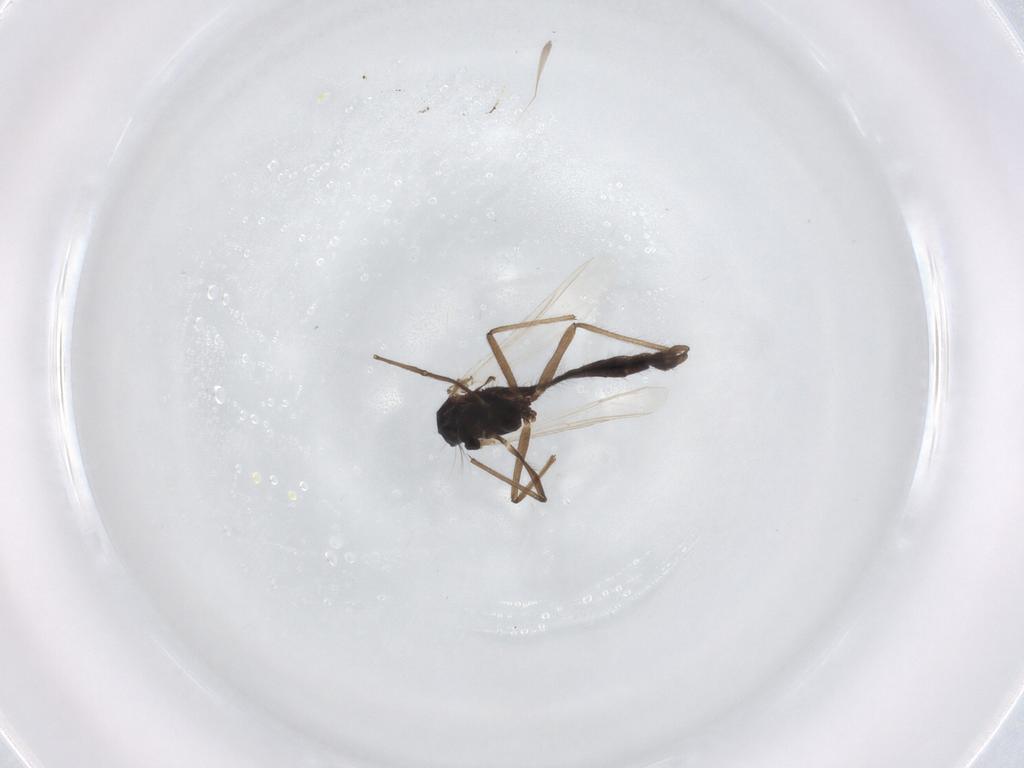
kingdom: Animalia
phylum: Arthropoda
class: Insecta
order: Diptera
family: Chironomidae
